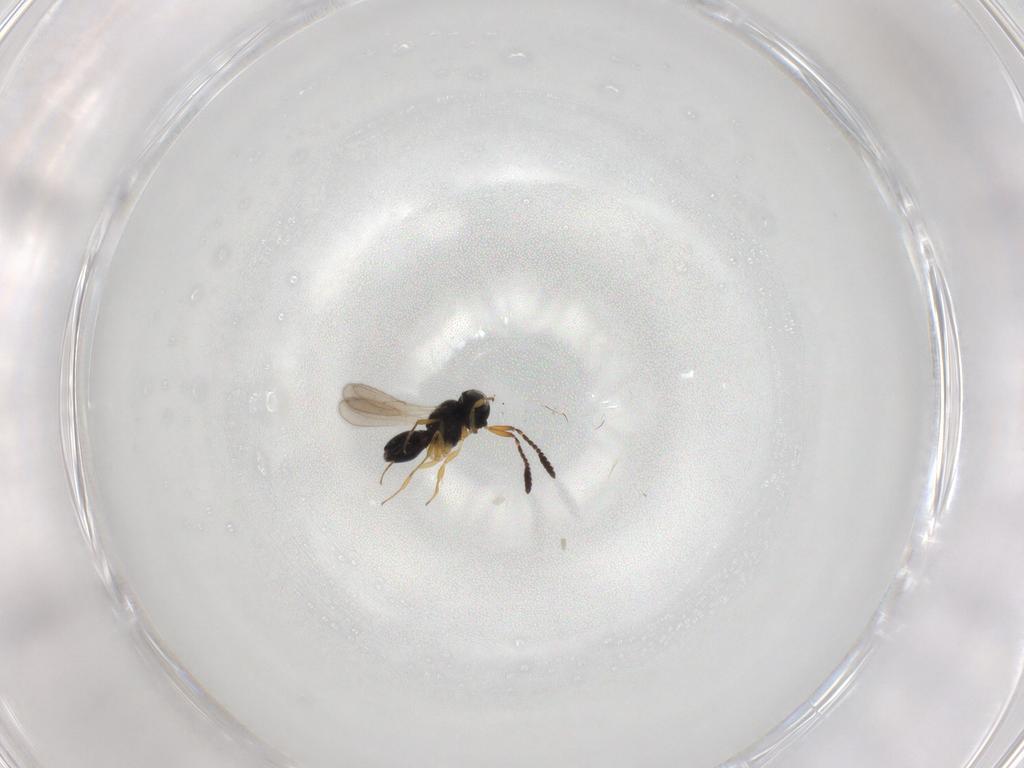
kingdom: Animalia
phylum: Arthropoda
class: Insecta
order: Hymenoptera
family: Scelionidae
